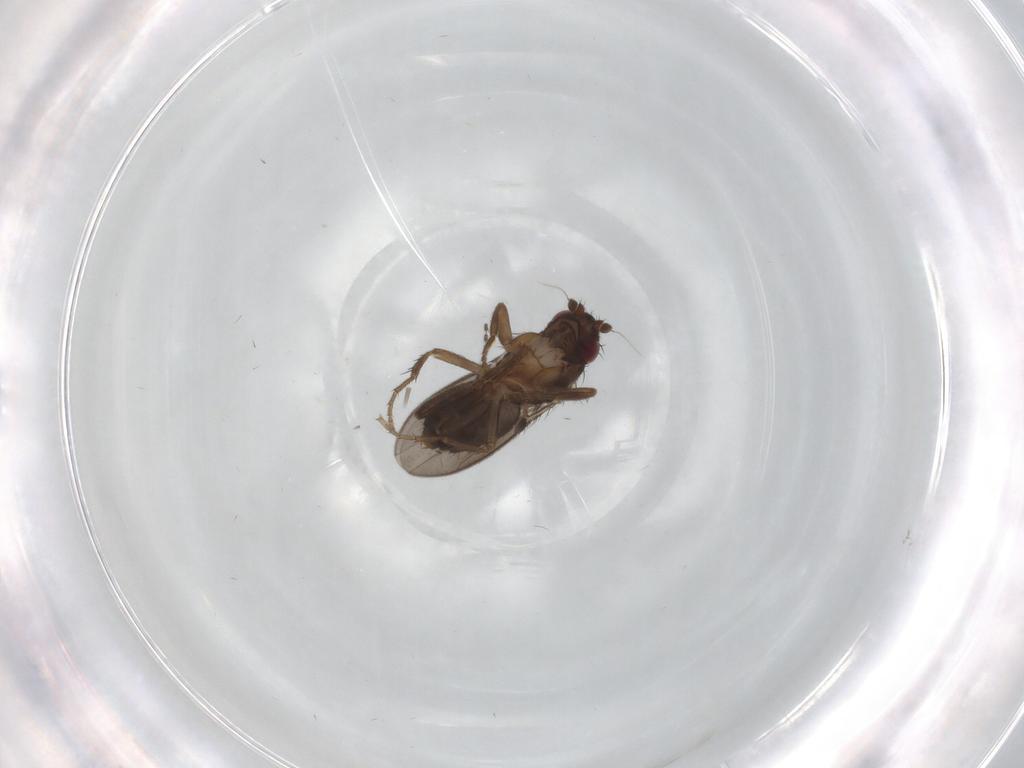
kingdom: Animalia
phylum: Arthropoda
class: Insecta
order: Diptera
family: Sphaeroceridae
